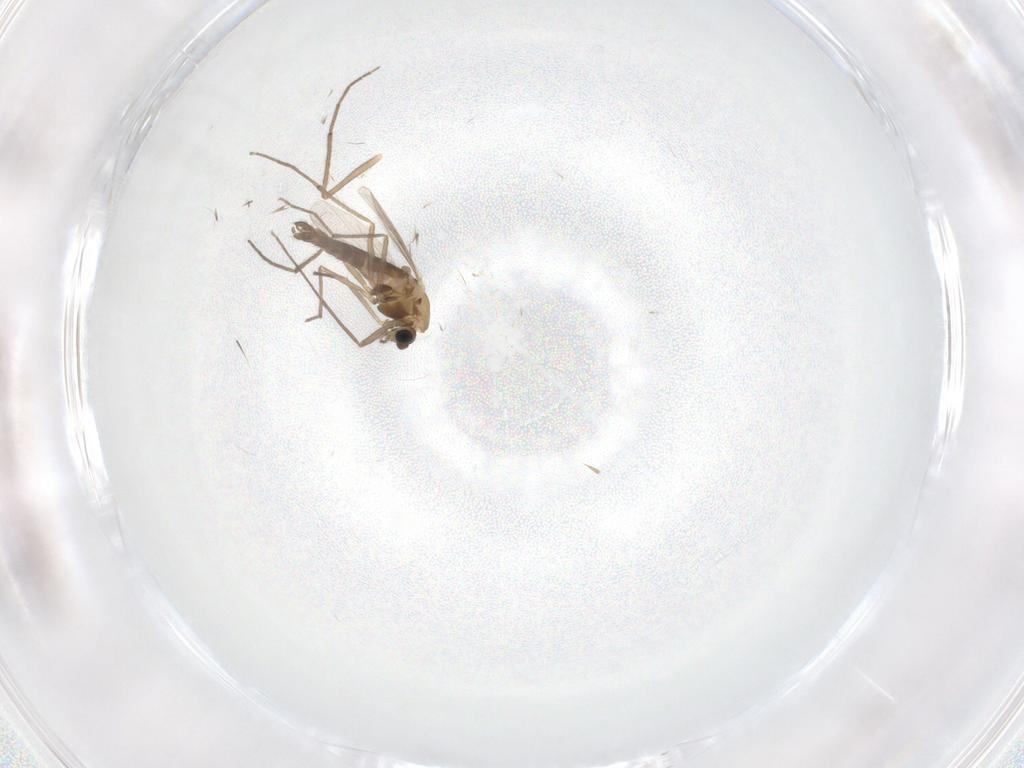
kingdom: Animalia
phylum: Arthropoda
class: Insecta
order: Diptera
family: Chironomidae
